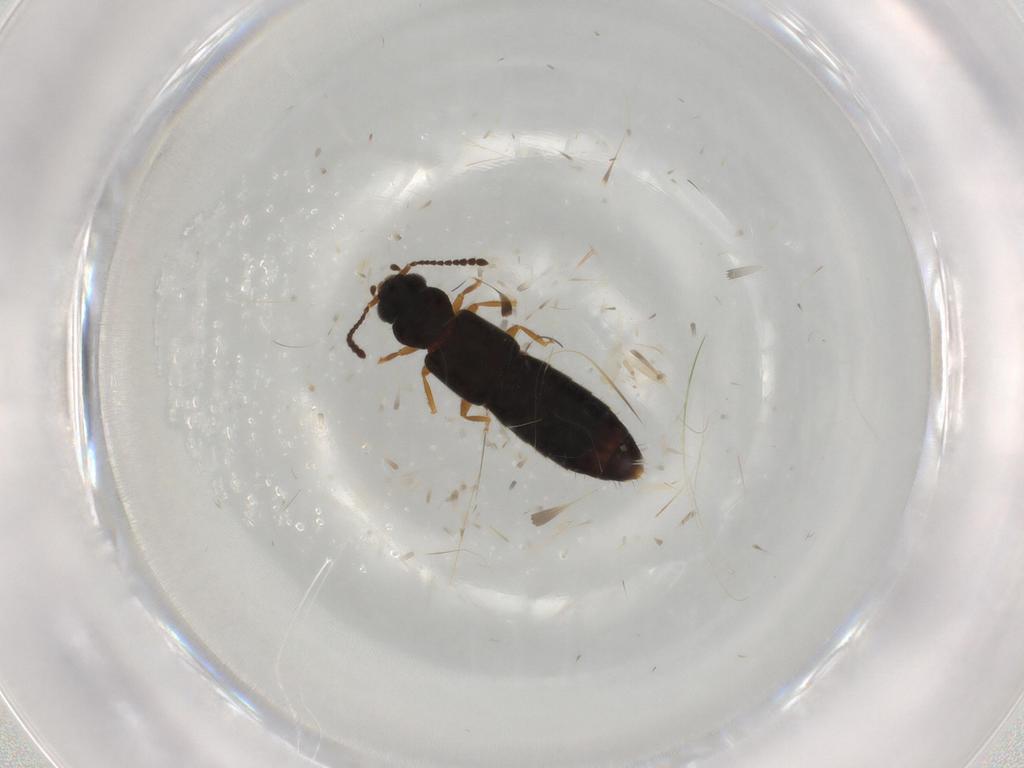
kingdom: Animalia
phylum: Arthropoda
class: Insecta
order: Coleoptera
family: Staphylinidae
